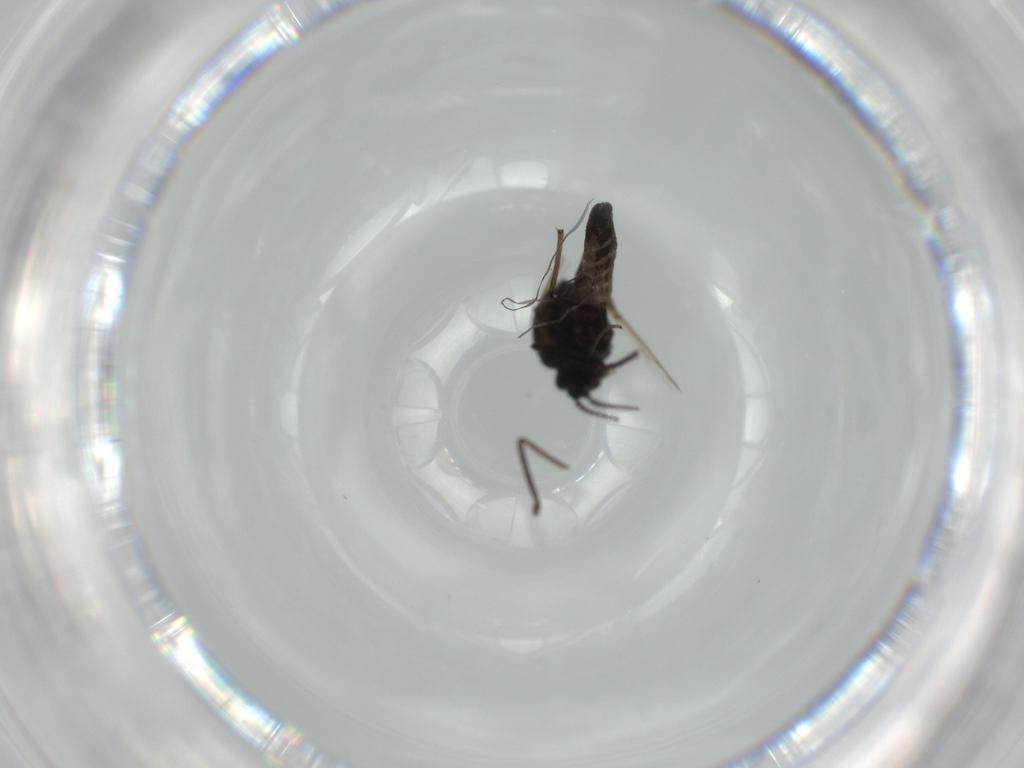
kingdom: Animalia
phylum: Arthropoda
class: Insecta
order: Diptera
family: Ceratopogonidae
